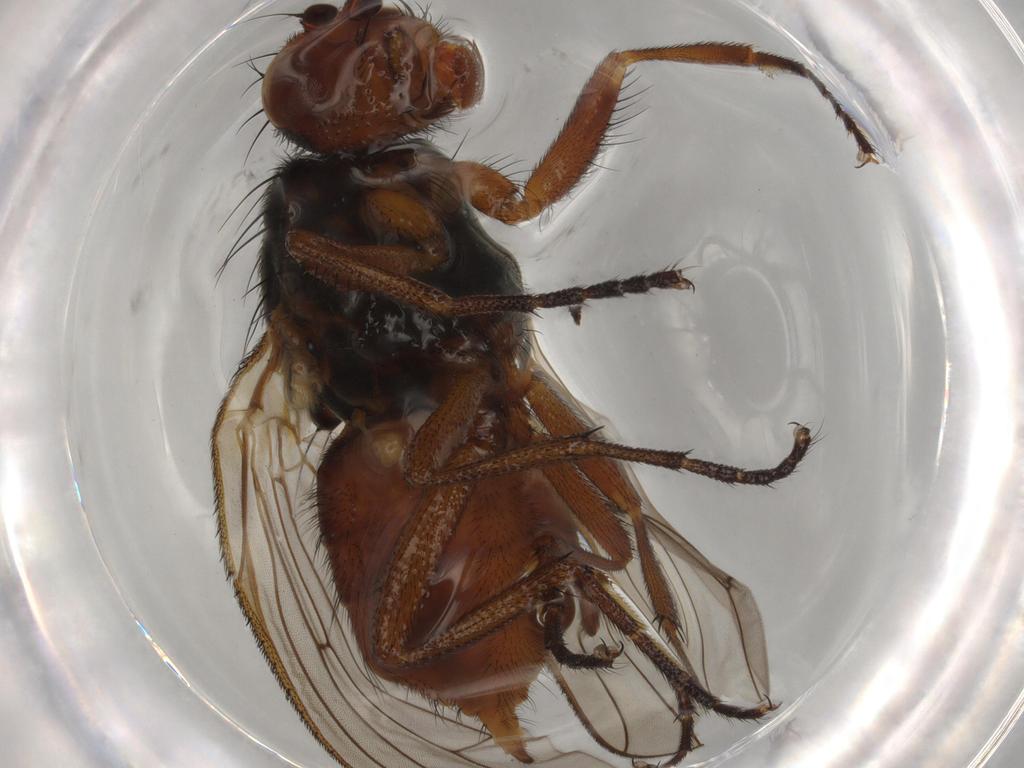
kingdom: Animalia
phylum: Arthropoda
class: Insecta
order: Diptera
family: Heleomyzidae
